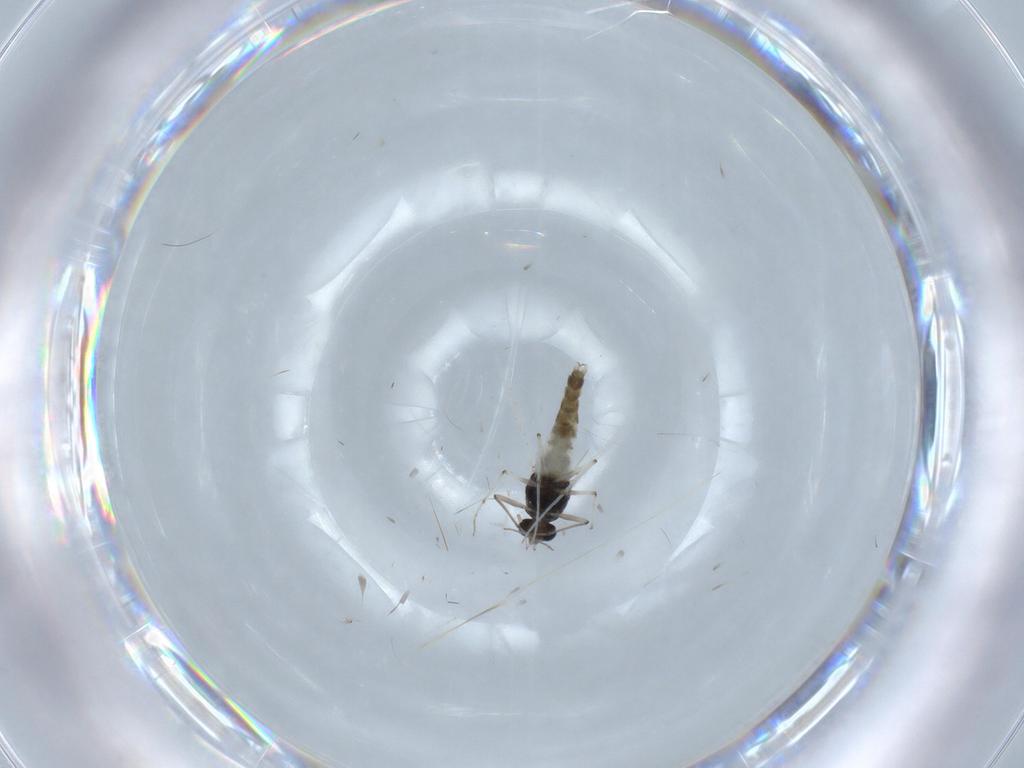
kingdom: Animalia
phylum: Arthropoda
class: Insecta
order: Diptera
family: Chironomidae
